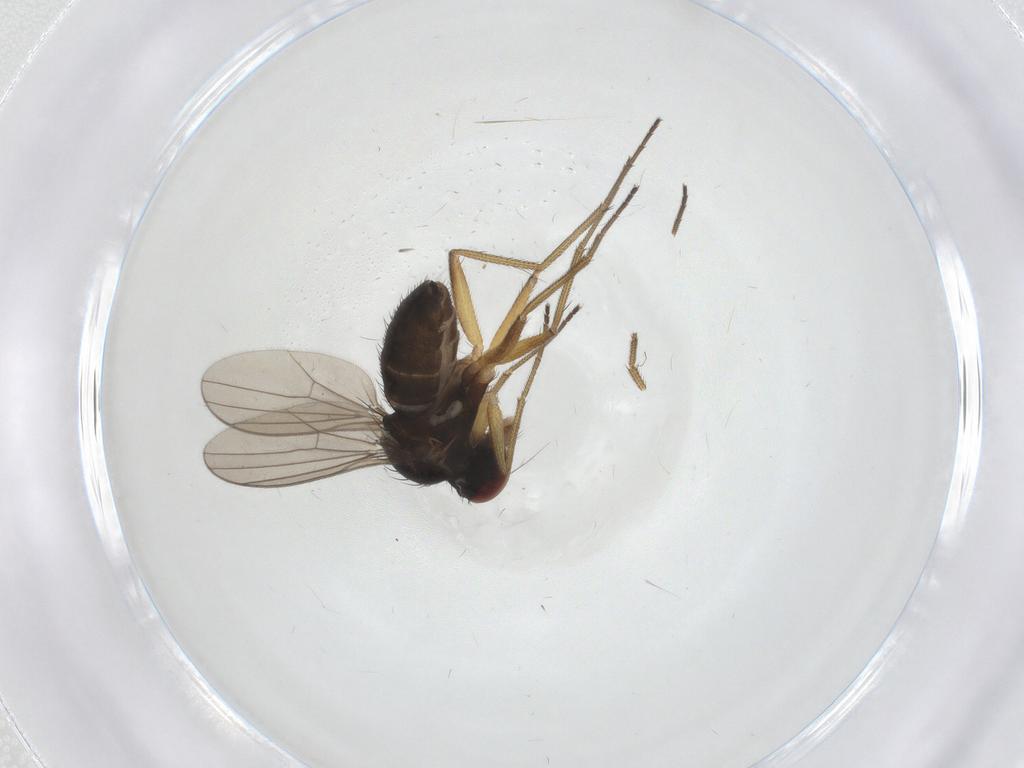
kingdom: Animalia
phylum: Arthropoda
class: Insecta
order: Diptera
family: Dolichopodidae
